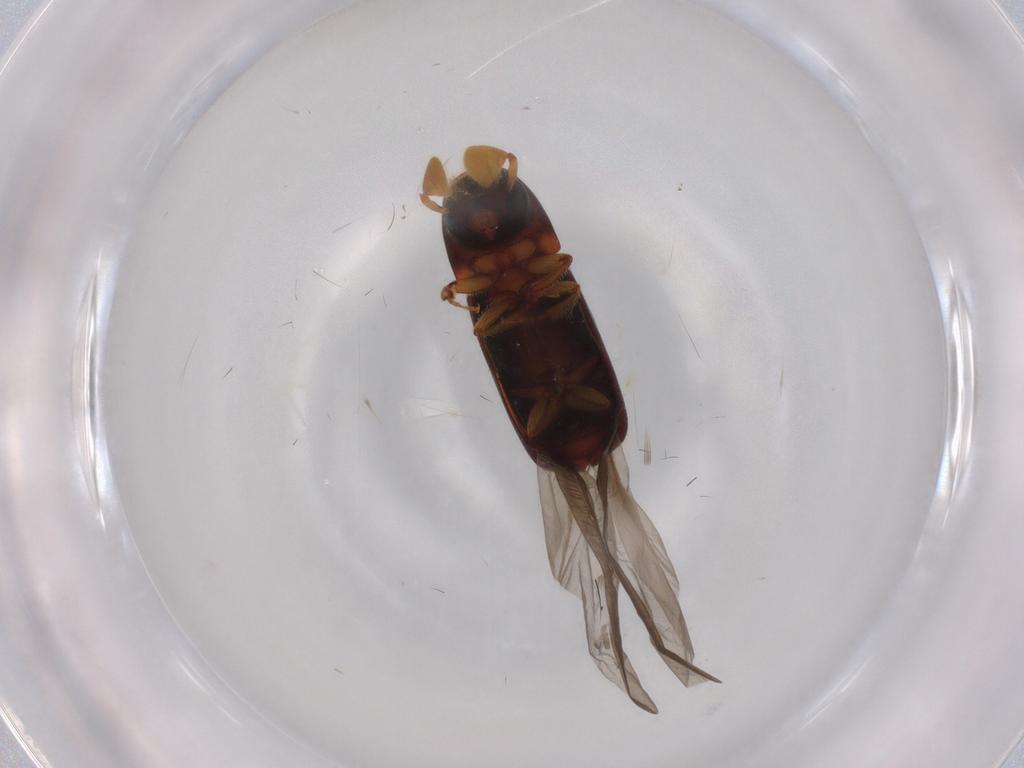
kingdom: Animalia
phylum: Arthropoda
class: Insecta
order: Coleoptera
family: Curculionidae
